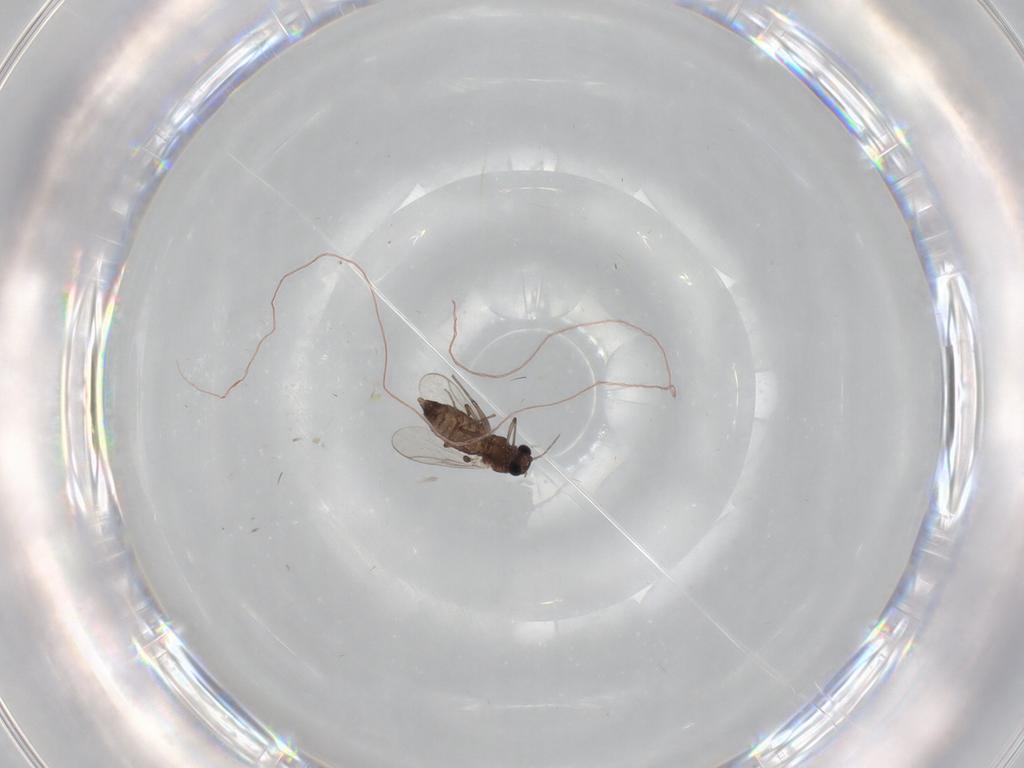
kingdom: Animalia
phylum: Arthropoda
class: Insecta
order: Diptera
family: Chironomidae
